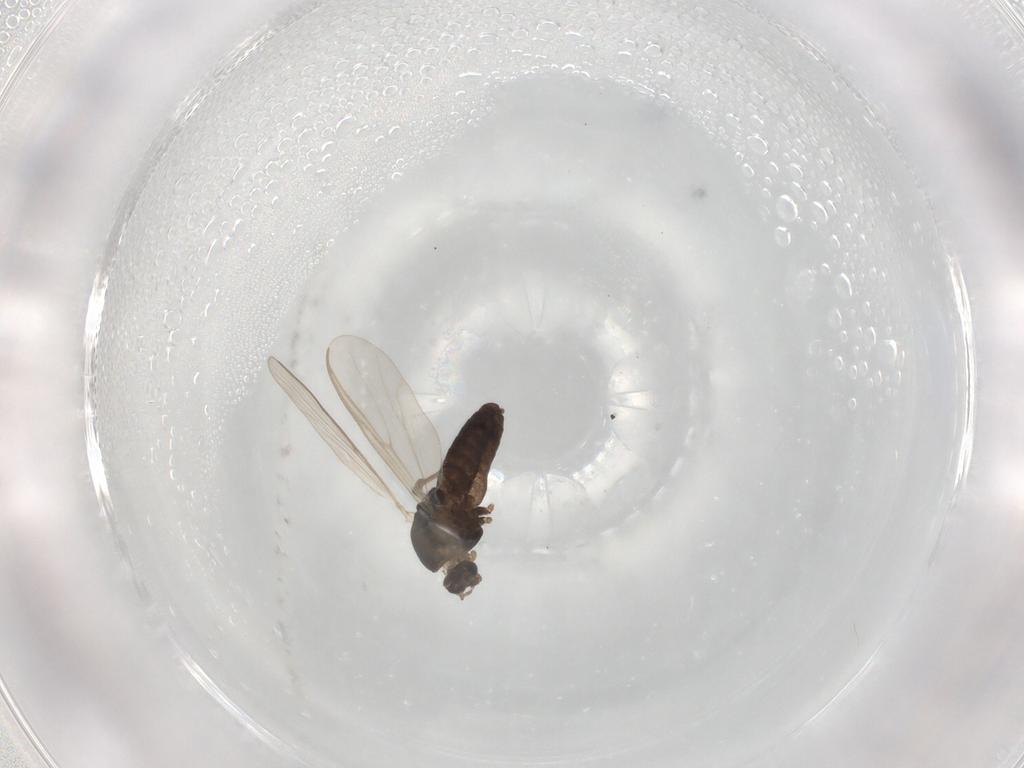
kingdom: Animalia
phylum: Arthropoda
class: Insecta
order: Diptera
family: Chironomidae
